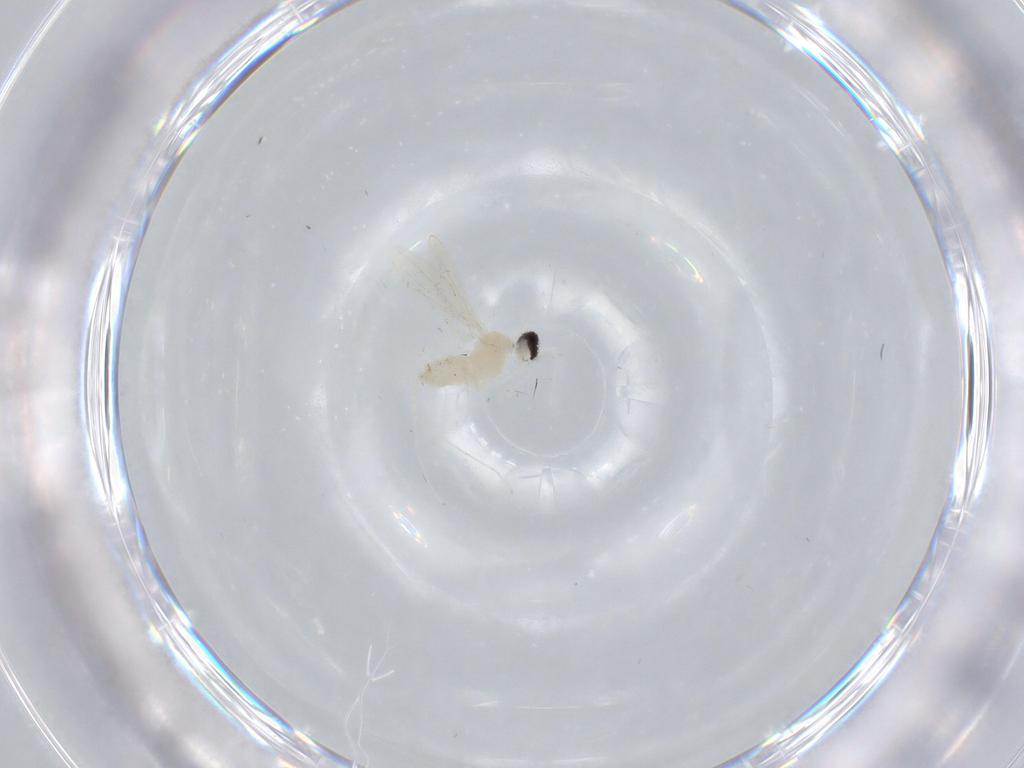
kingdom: Animalia
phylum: Arthropoda
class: Insecta
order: Diptera
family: Cecidomyiidae
